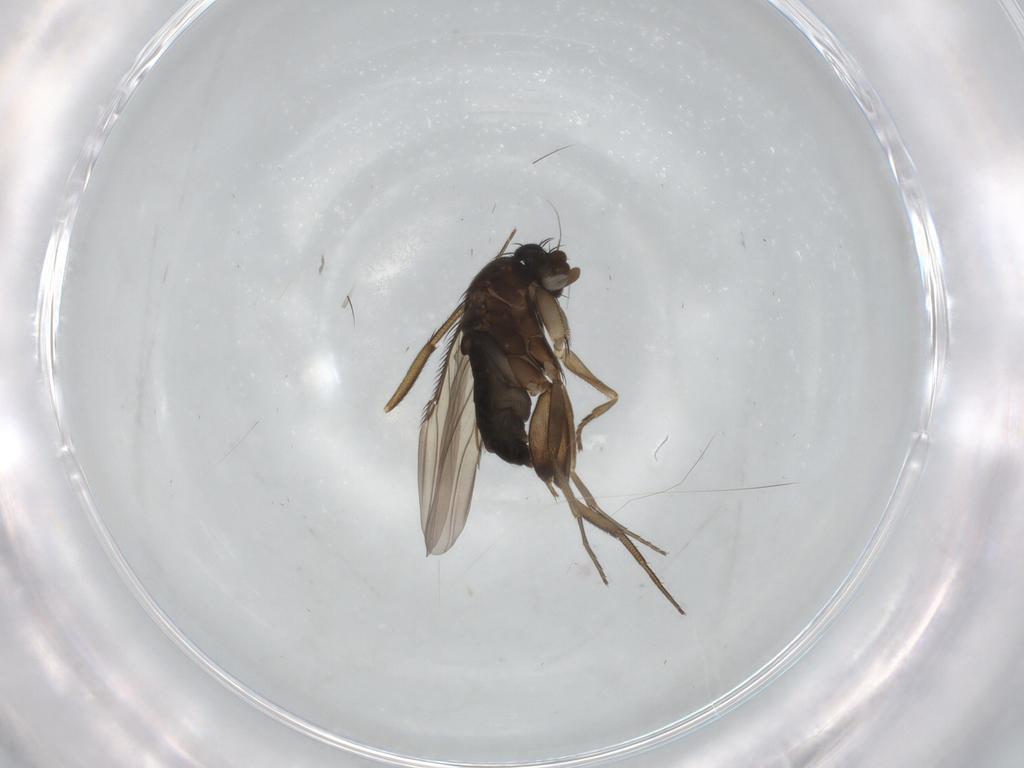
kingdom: Animalia
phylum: Arthropoda
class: Insecta
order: Diptera
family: Phoridae
